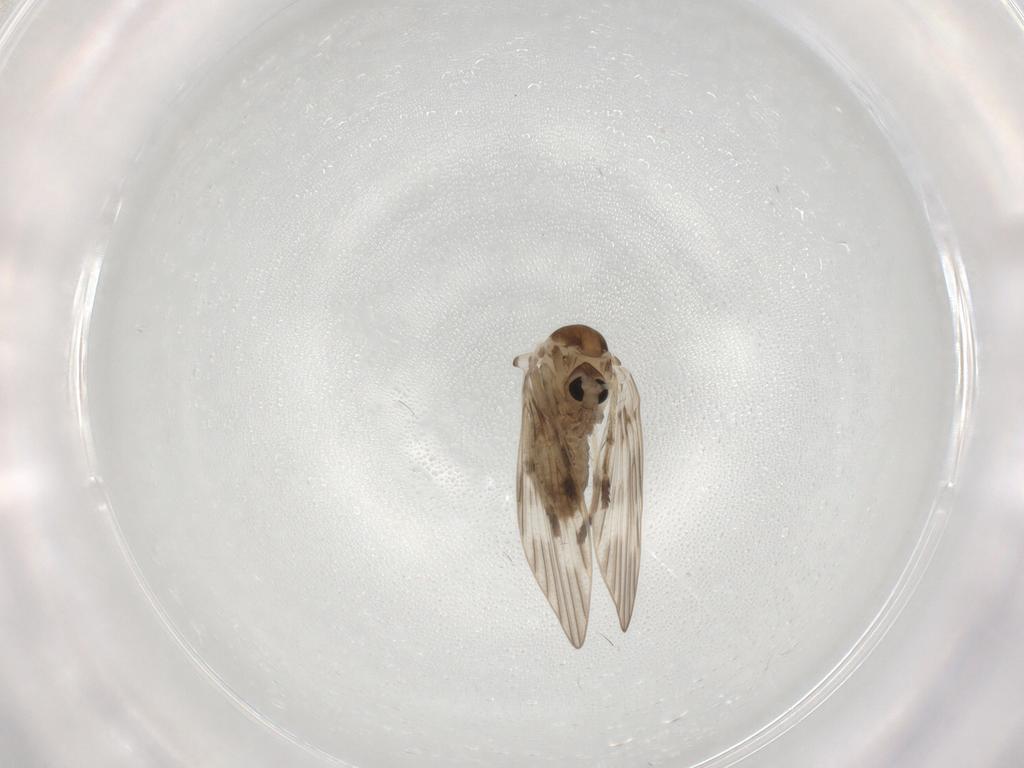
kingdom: Animalia
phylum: Arthropoda
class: Insecta
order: Diptera
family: Psychodidae
